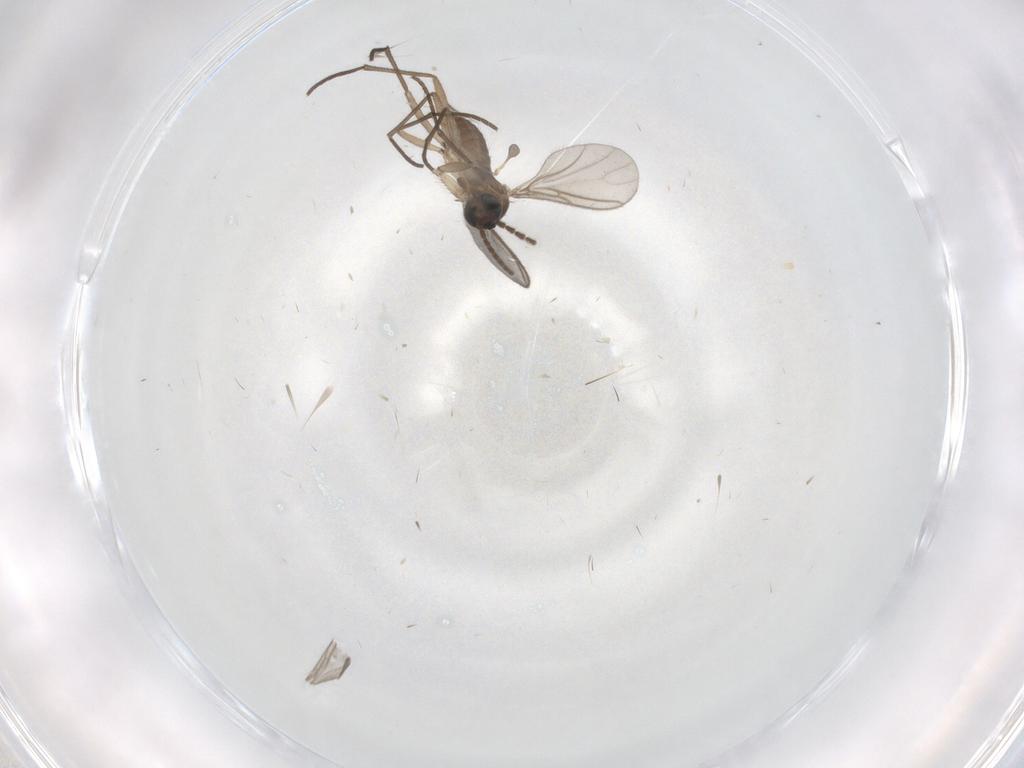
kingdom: Animalia
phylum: Arthropoda
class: Insecta
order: Diptera
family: Sciaridae
